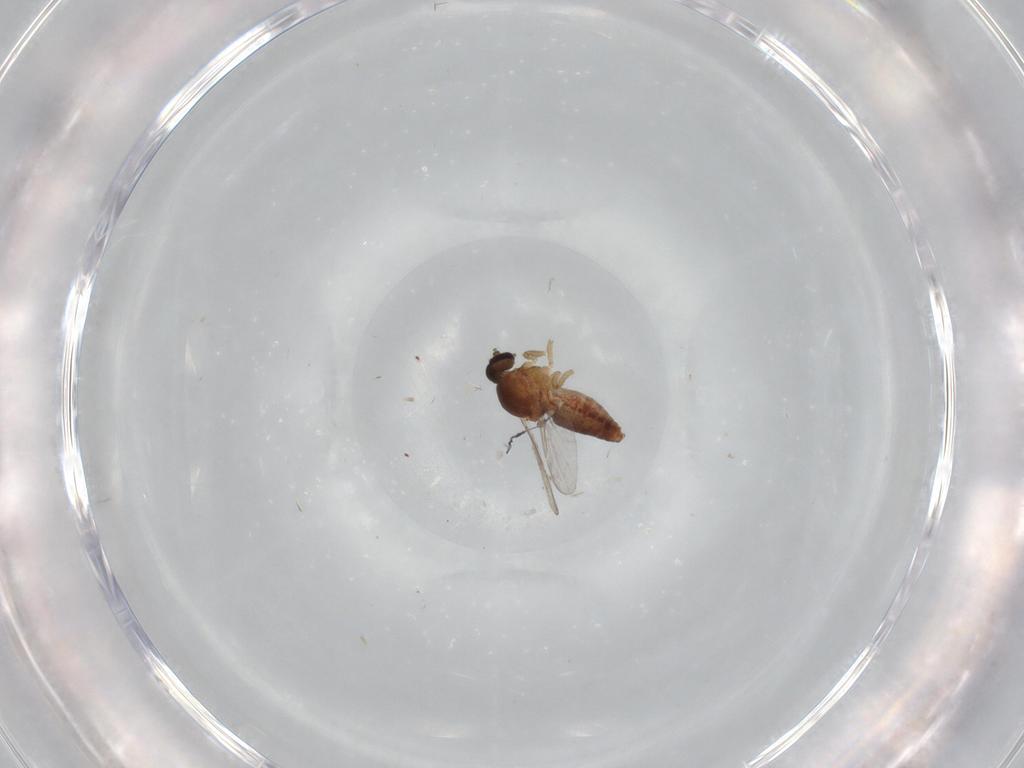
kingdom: Animalia
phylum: Arthropoda
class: Insecta
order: Diptera
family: Ceratopogonidae
